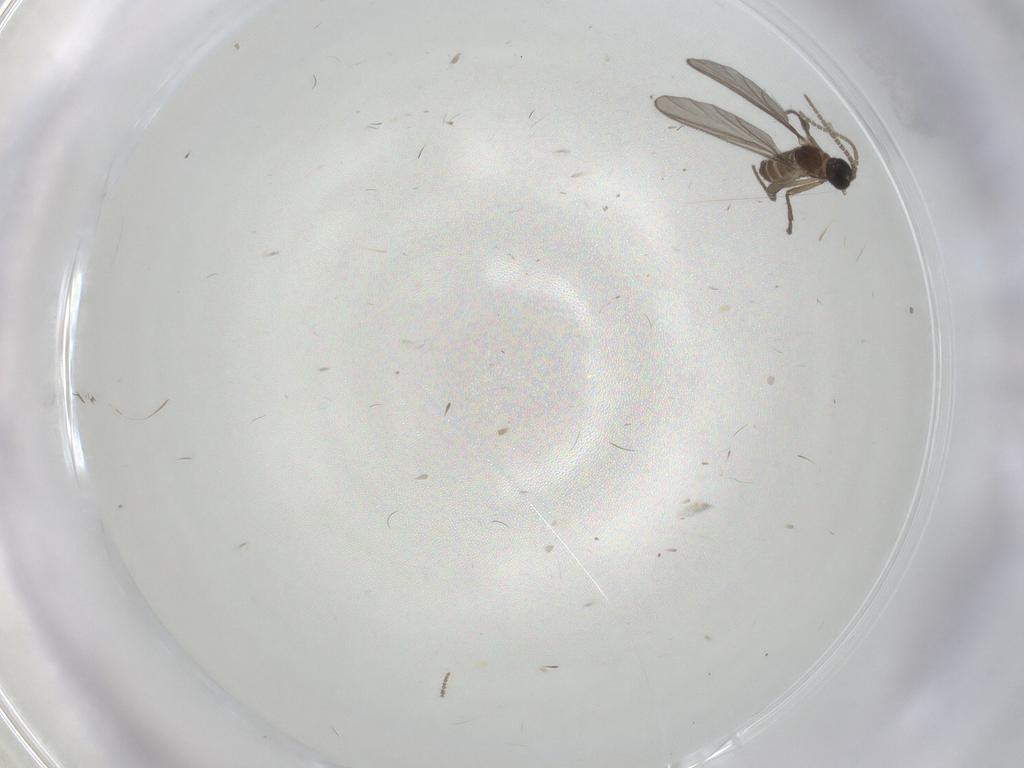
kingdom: Animalia
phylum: Arthropoda
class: Insecta
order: Diptera
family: Sciaridae
